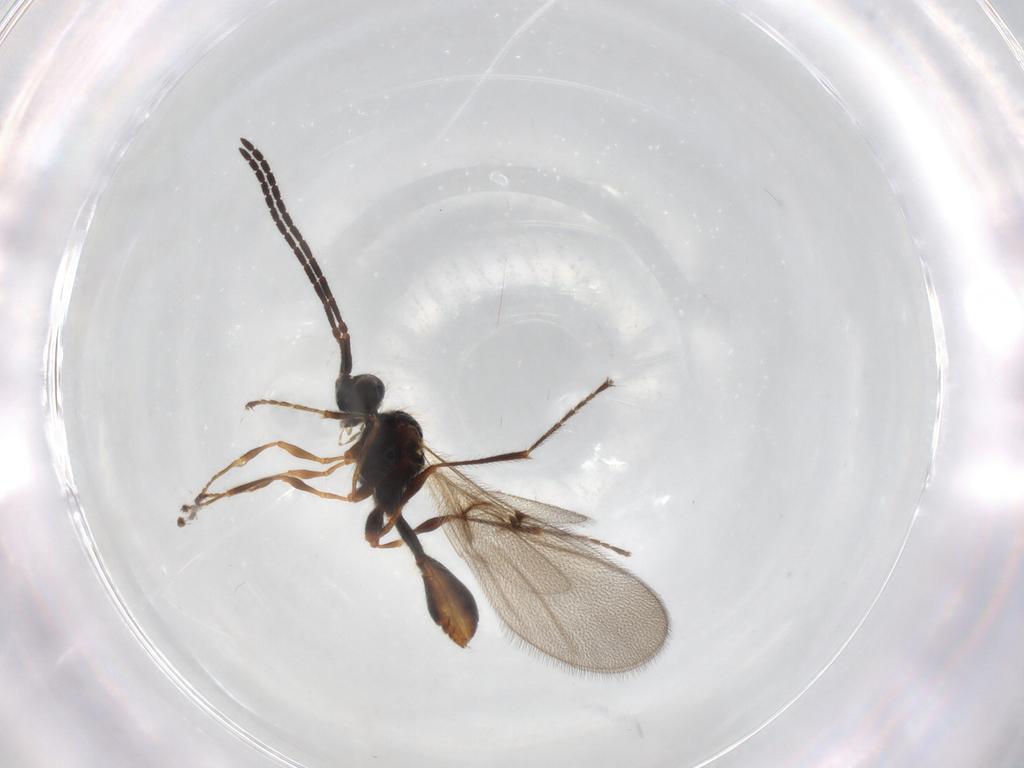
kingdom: Animalia
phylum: Arthropoda
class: Insecta
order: Hymenoptera
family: Diapriidae
